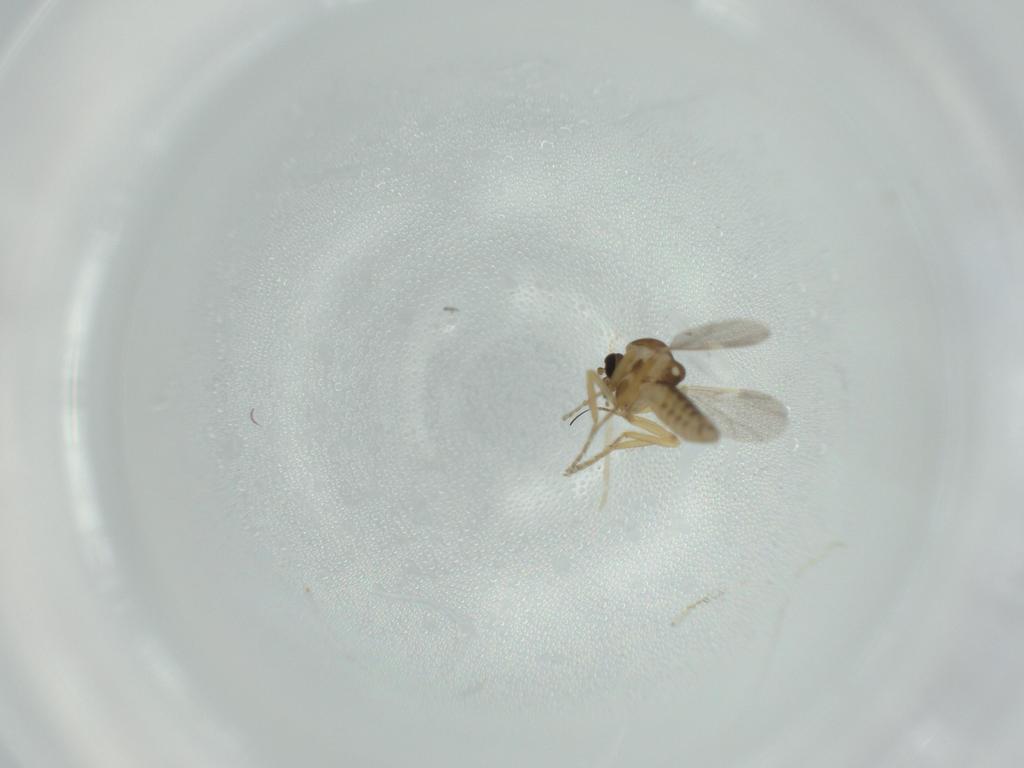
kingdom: Animalia
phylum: Arthropoda
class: Insecta
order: Diptera
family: Ceratopogonidae
